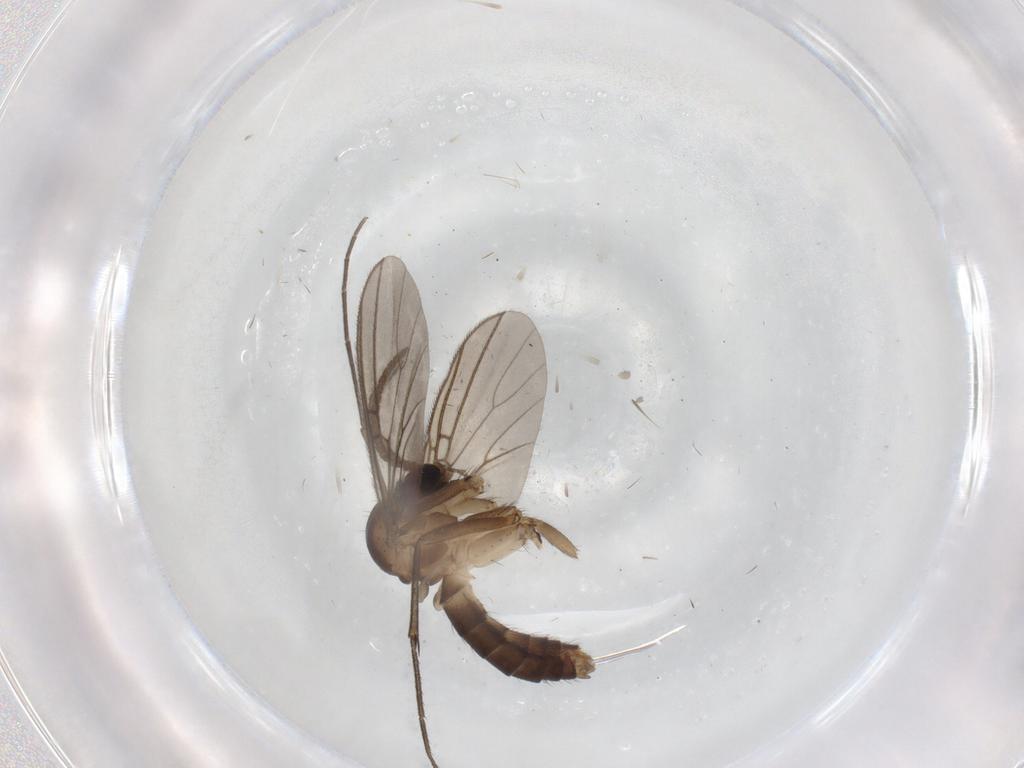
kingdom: Animalia
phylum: Arthropoda
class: Insecta
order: Diptera
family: Limoniidae
